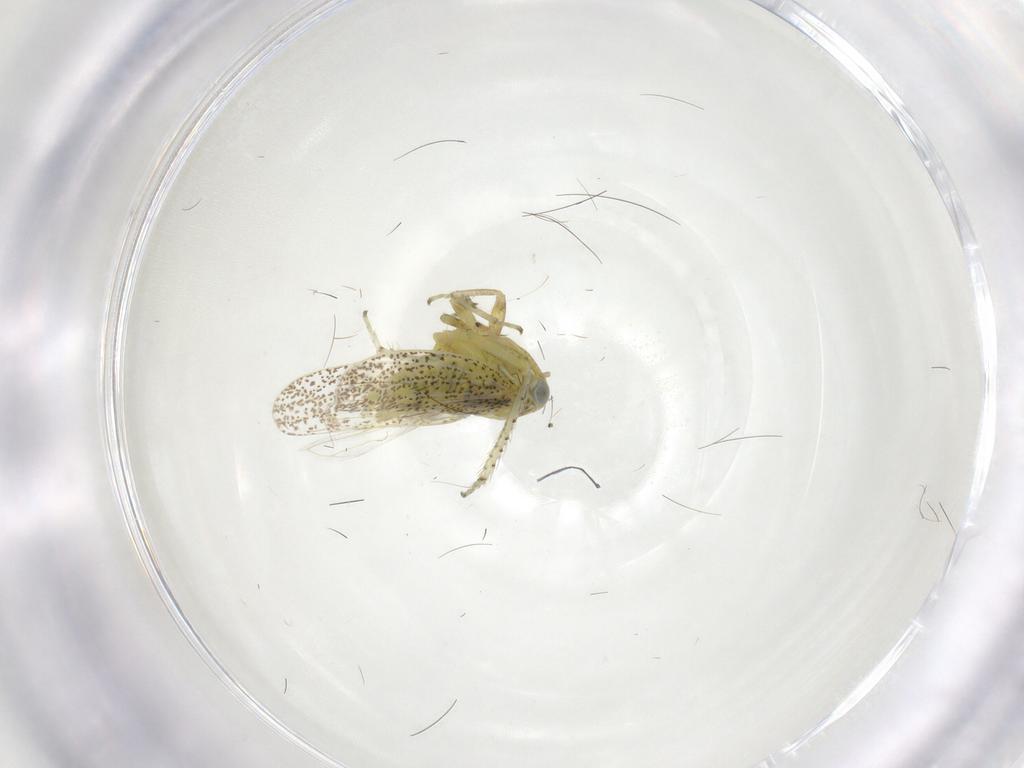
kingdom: Animalia
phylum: Arthropoda
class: Insecta
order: Hemiptera
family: Cicadellidae
